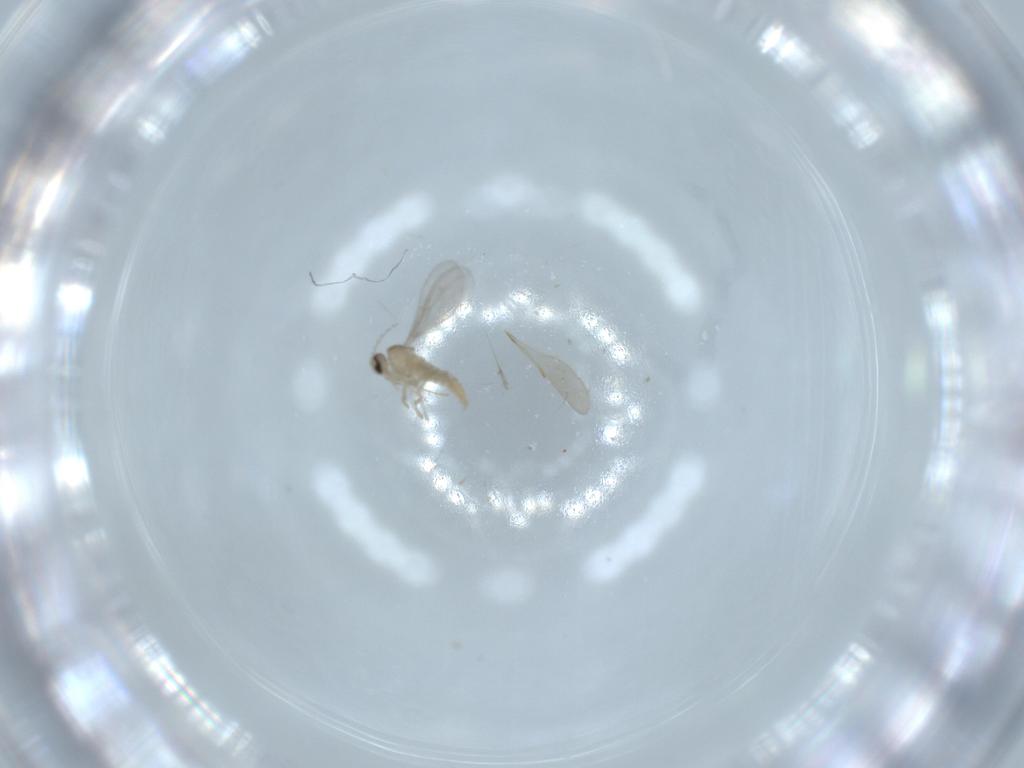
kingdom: Animalia
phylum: Arthropoda
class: Insecta
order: Diptera
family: Cecidomyiidae
